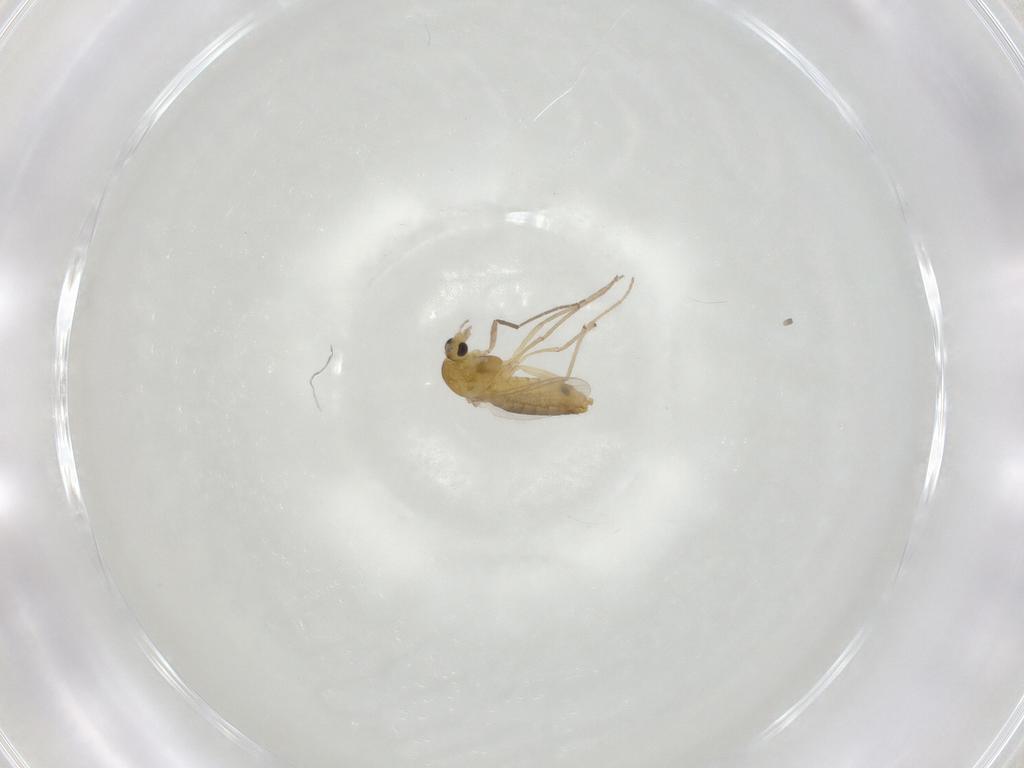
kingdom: Animalia
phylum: Arthropoda
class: Insecta
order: Diptera
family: Chironomidae
